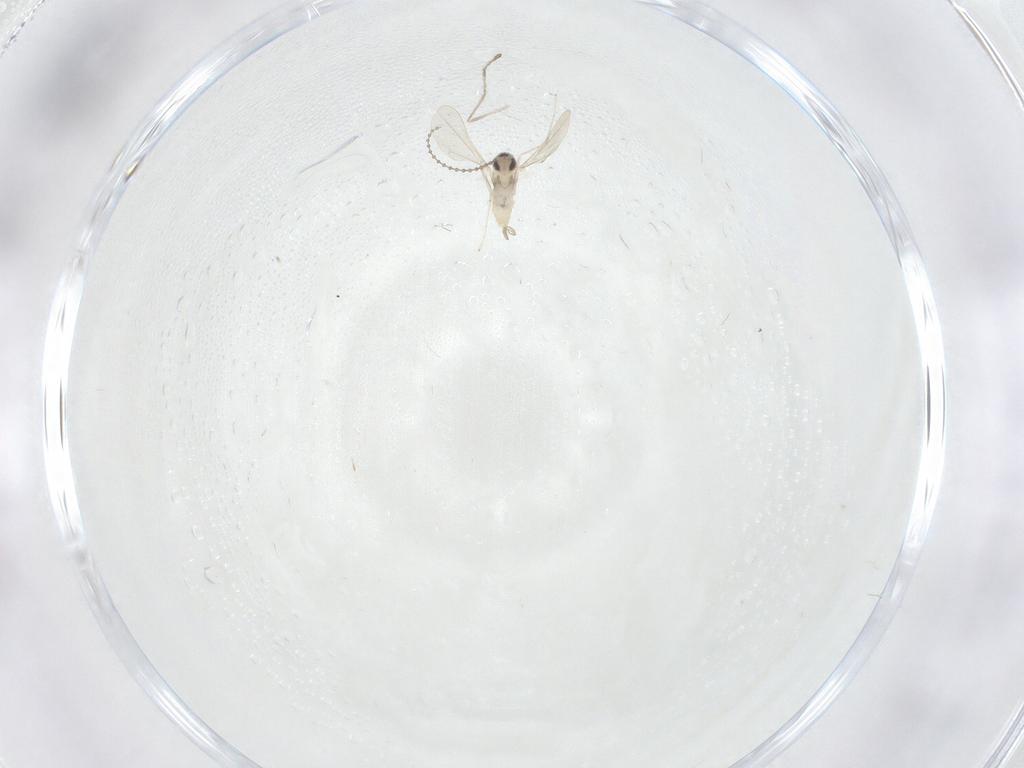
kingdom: Animalia
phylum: Arthropoda
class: Insecta
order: Diptera
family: Cecidomyiidae
